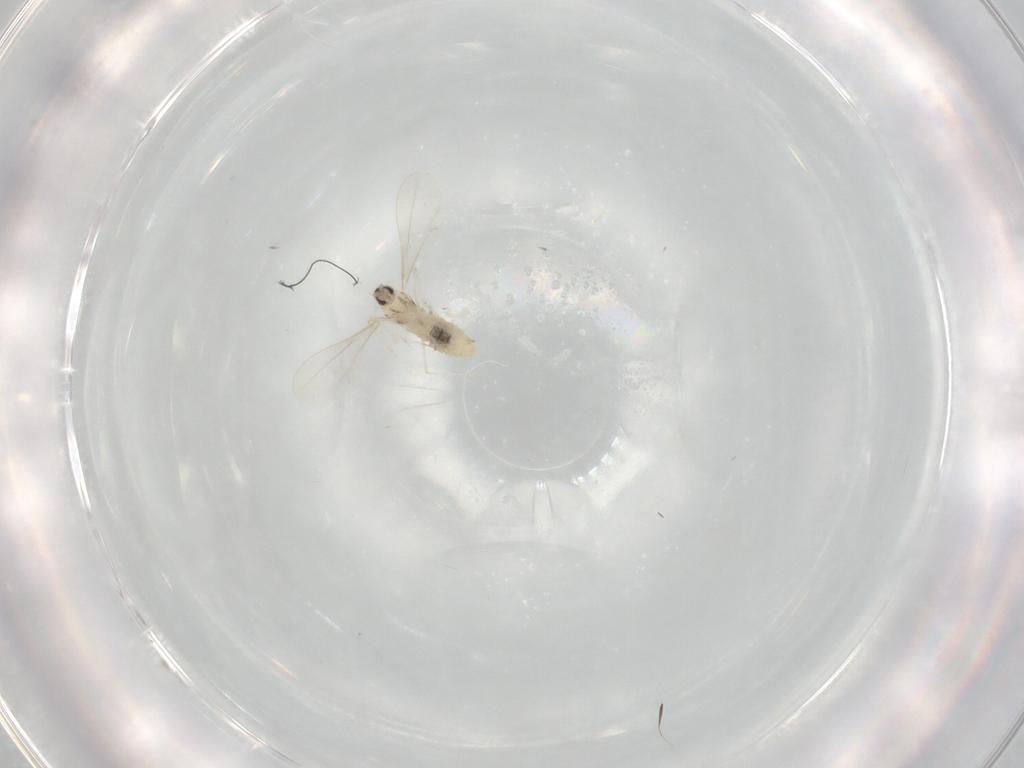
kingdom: Animalia
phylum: Arthropoda
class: Insecta
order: Diptera
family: Cecidomyiidae
